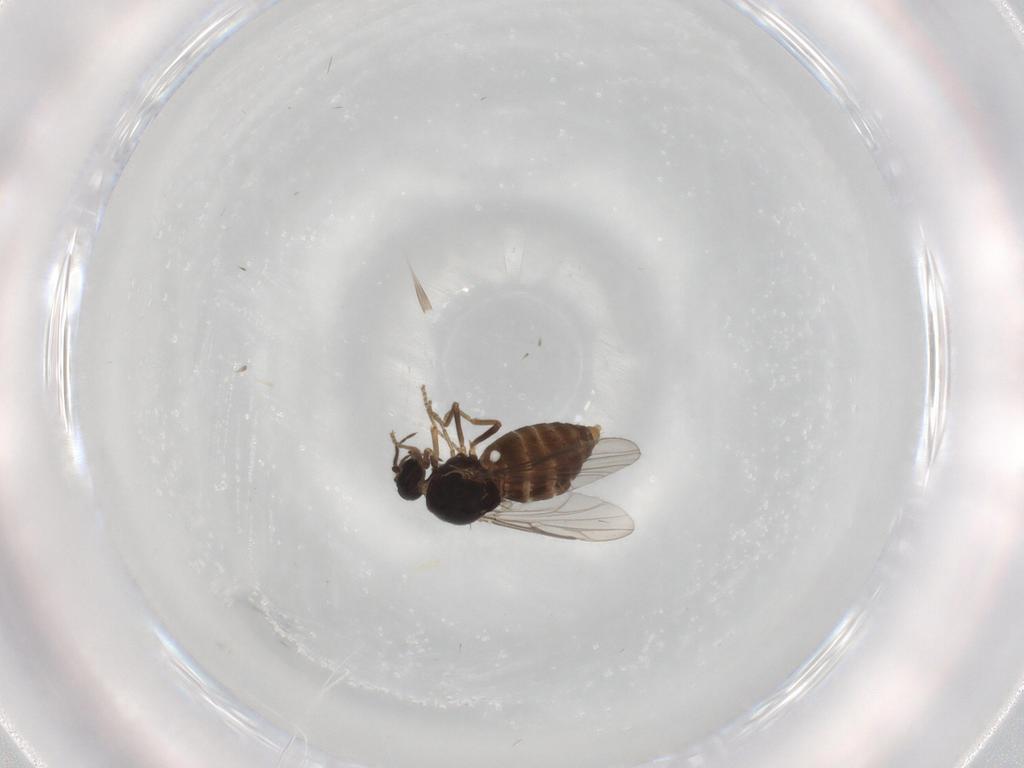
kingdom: Animalia
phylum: Arthropoda
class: Insecta
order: Diptera
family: Ceratopogonidae
